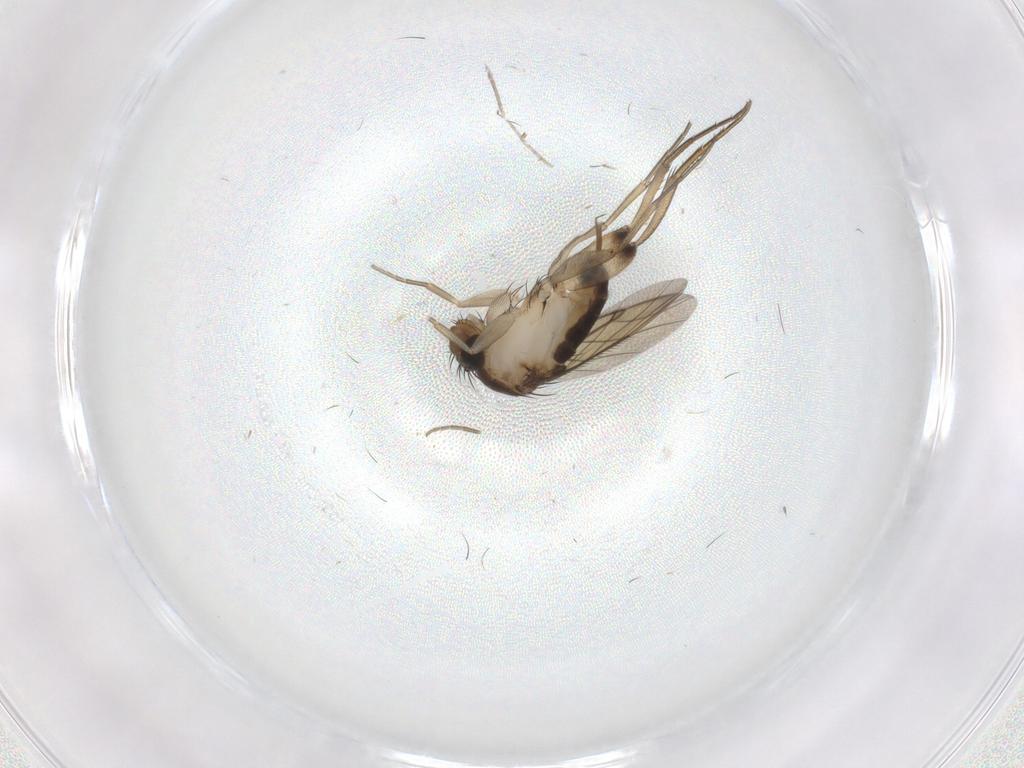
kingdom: Animalia
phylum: Arthropoda
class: Insecta
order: Diptera
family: Phoridae
